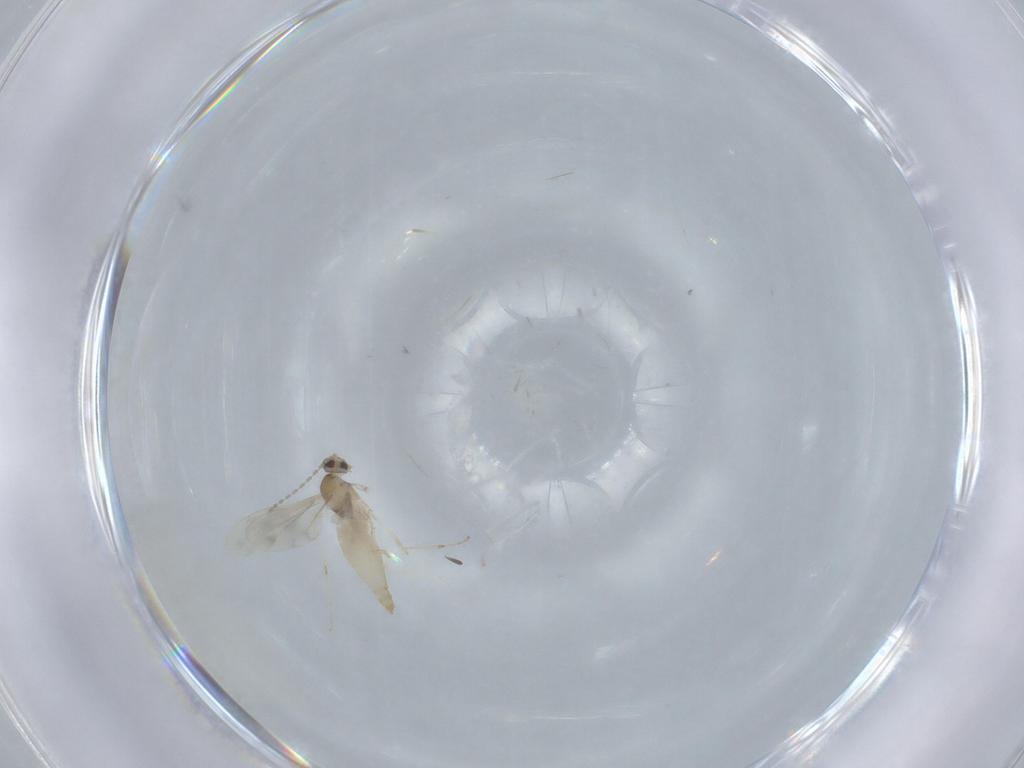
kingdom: Animalia
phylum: Arthropoda
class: Insecta
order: Diptera
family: Cecidomyiidae
